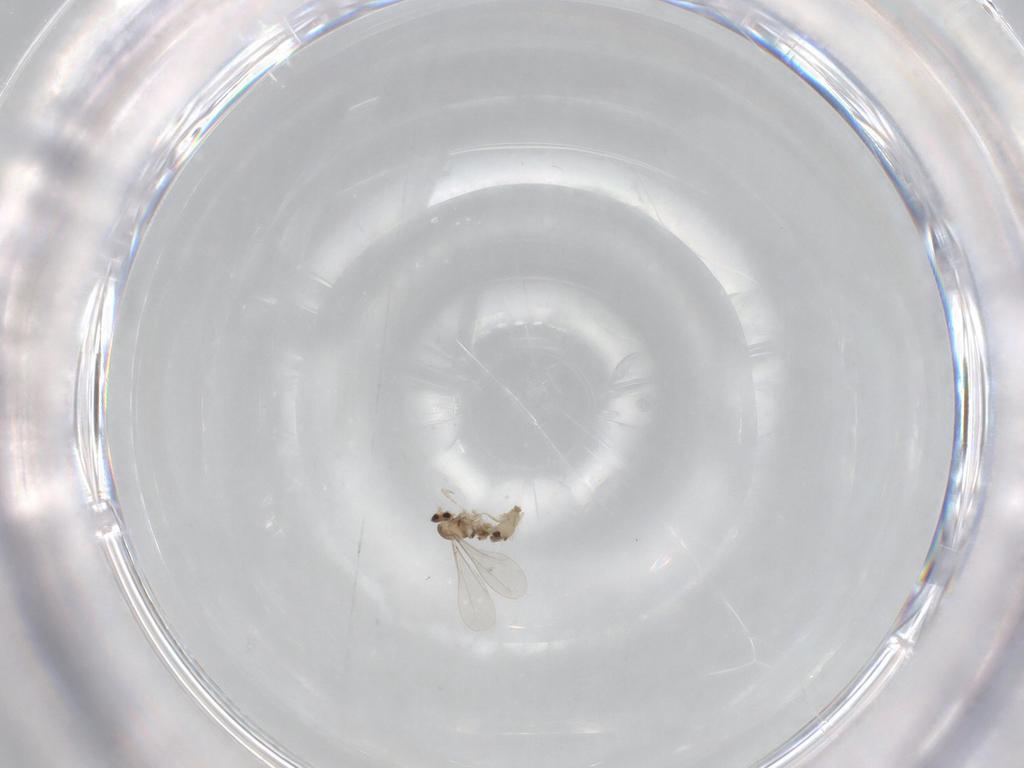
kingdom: Animalia
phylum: Arthropoda
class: Insecta
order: Diptera
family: Cecidomyiidae
